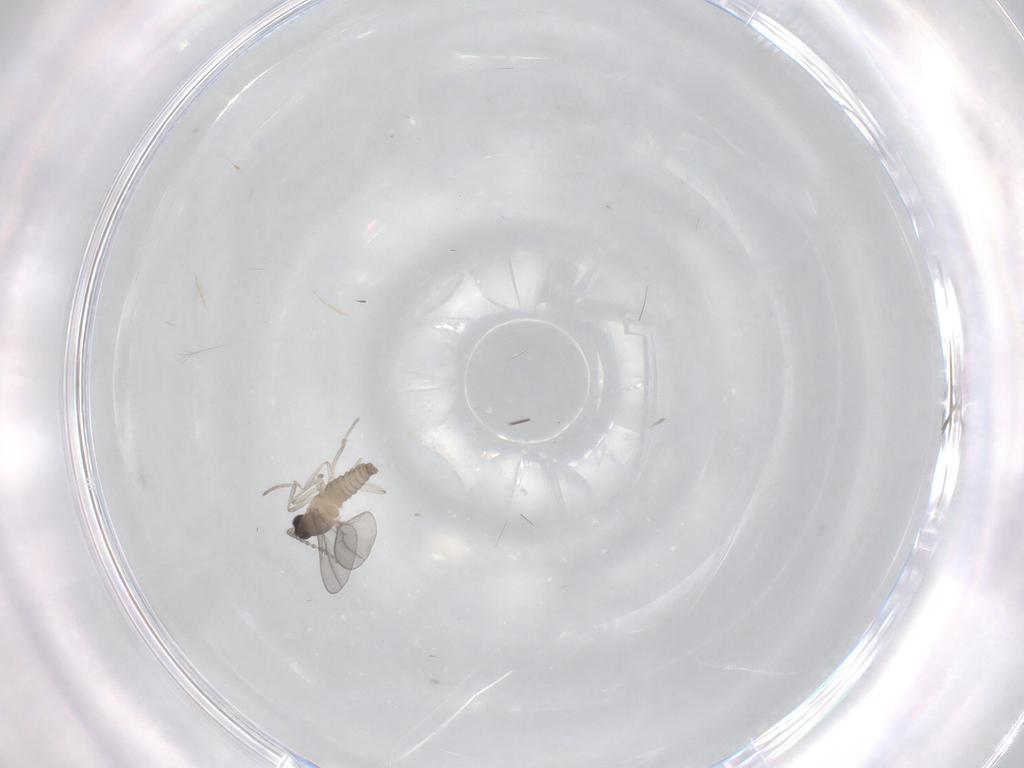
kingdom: Animalia
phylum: Arthropoda
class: Insecta
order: Diptera
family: Cecidomyiidae
